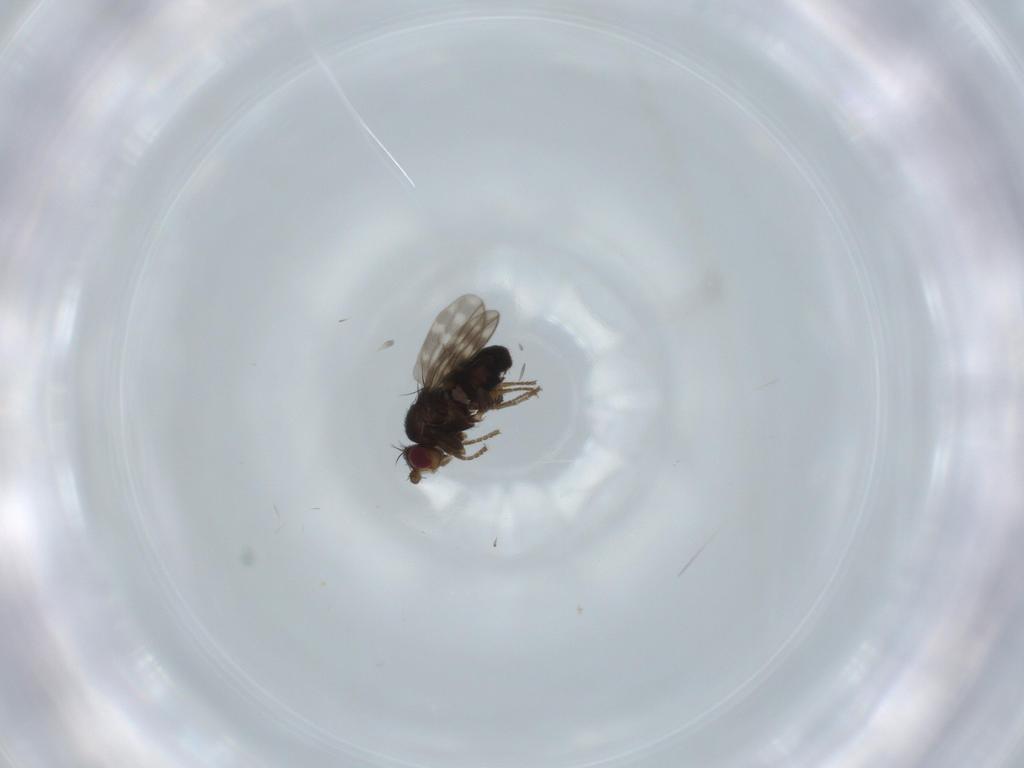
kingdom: Animalia
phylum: Arthropoda
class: Insecta
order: Diptera
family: Sphaeroceridae
